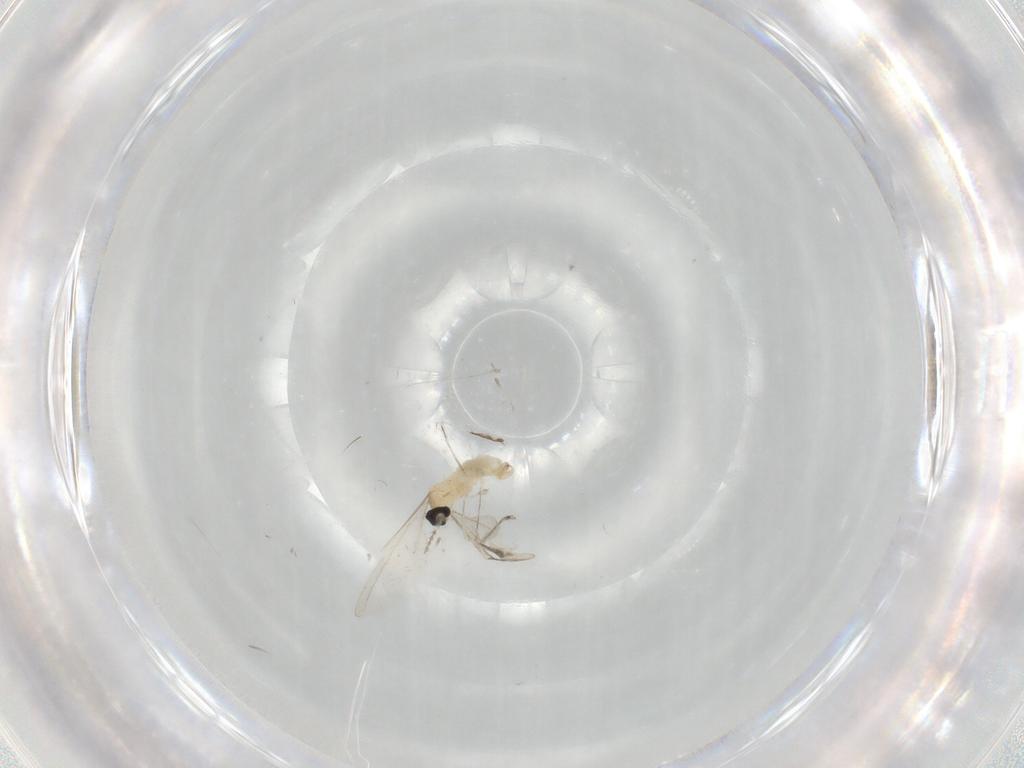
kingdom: Animalia
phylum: Arthropoda
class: Insecta
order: Diptera
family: Cecidomyiidae
